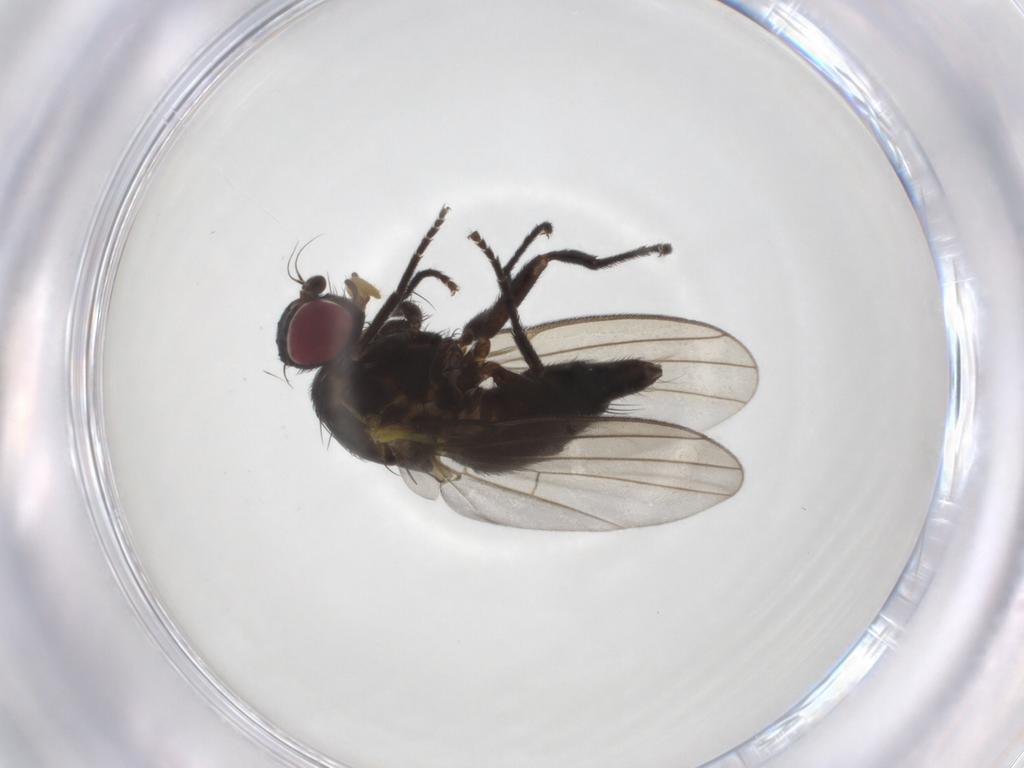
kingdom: Animalia
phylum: Arthropoda
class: Insecta
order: Diptera
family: Agromyzidae
